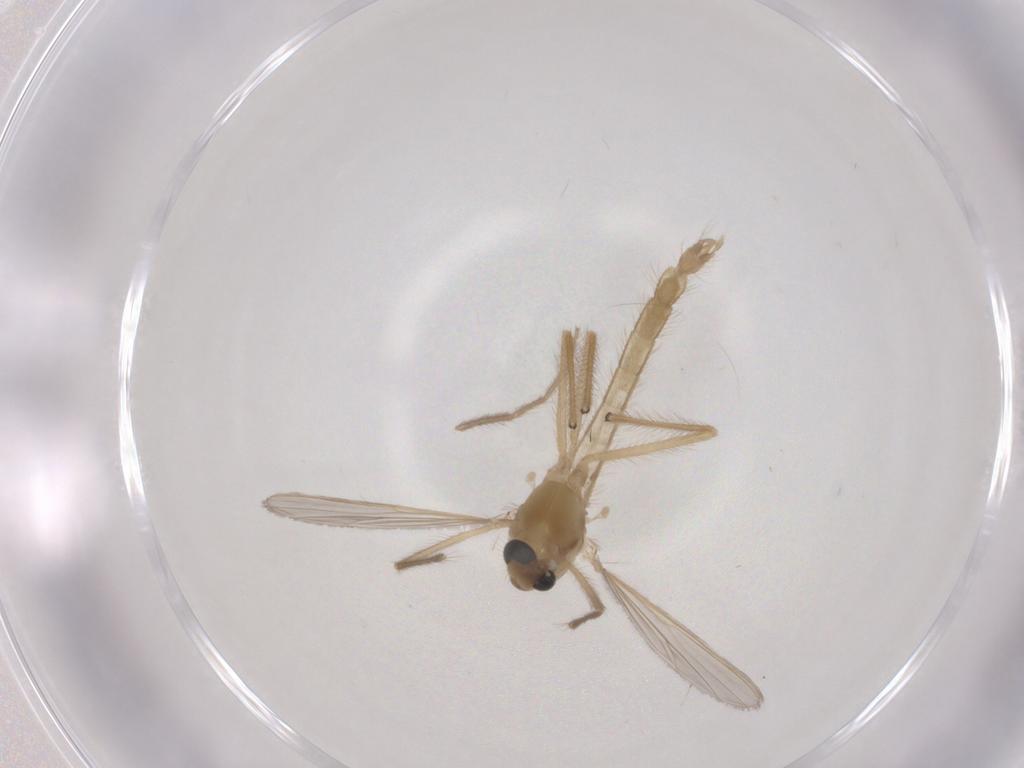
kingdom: Animalia
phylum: Arthropoda
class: Insecta
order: Diptera
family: Chironomidae
